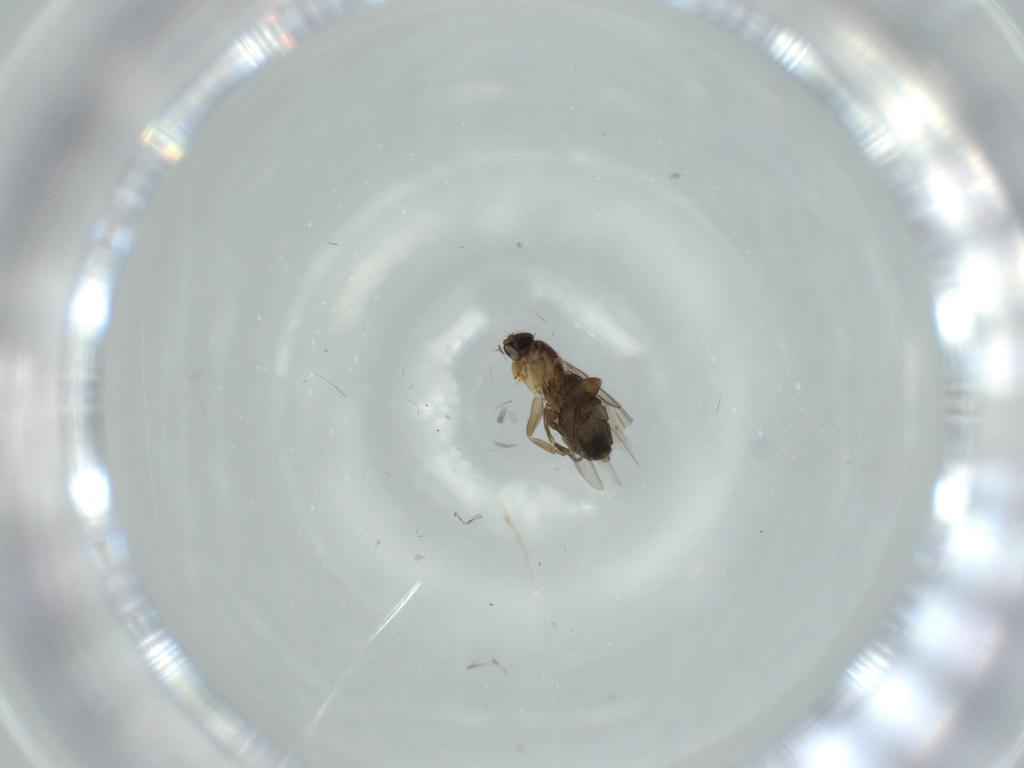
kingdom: Animalia
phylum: Arthropoda
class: Insecta
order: Diptera
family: Phoridae
